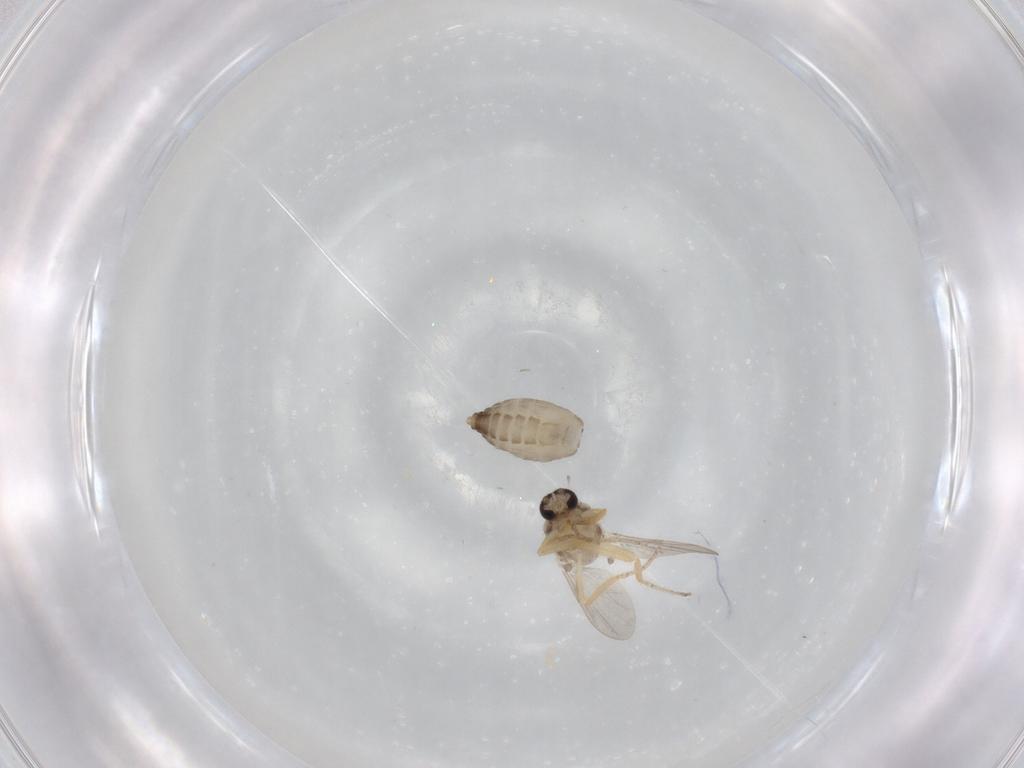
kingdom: Animalia
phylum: Arthropoda
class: Insecta
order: Diptera
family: Ceratopogonidae
